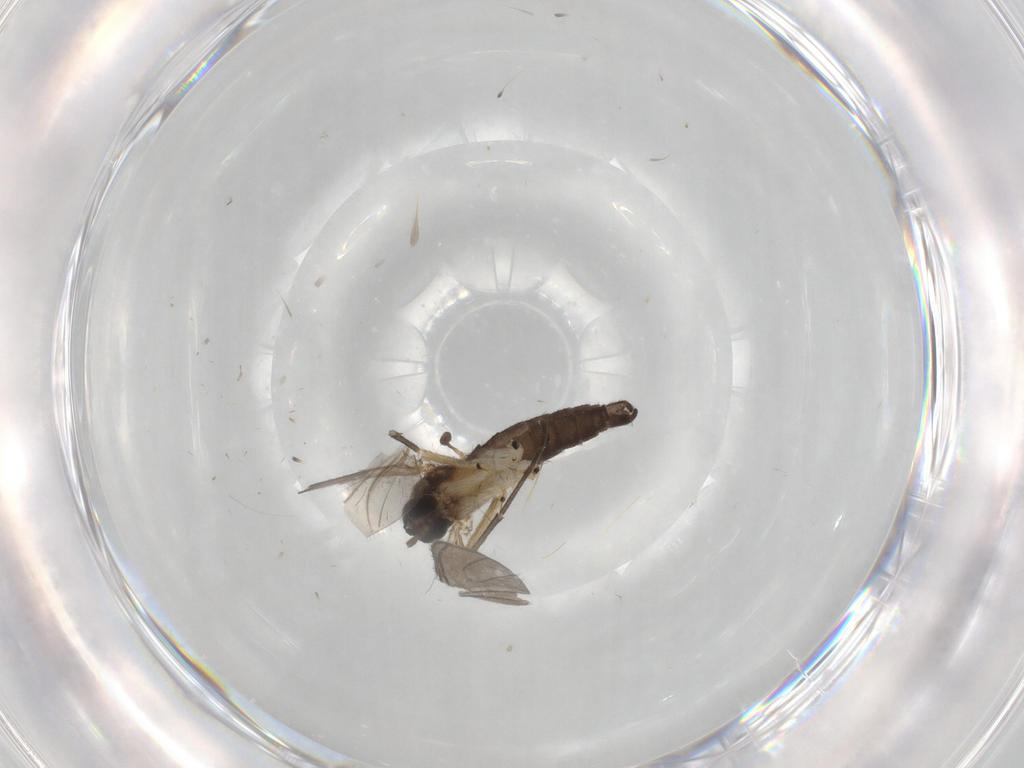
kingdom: Animalia
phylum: Arthropoda
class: Insecta
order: Diptera
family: Sciaridae
